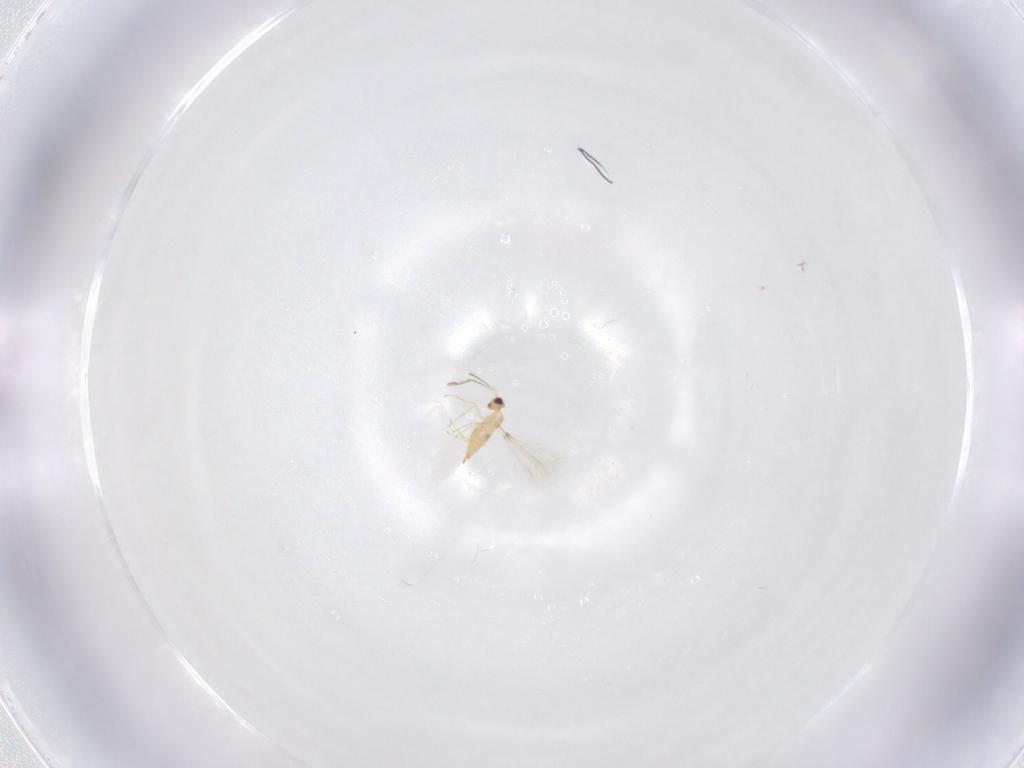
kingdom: Animalia
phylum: Arthropoda
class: Insecta
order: Hymenoptera
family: Mymaridae
